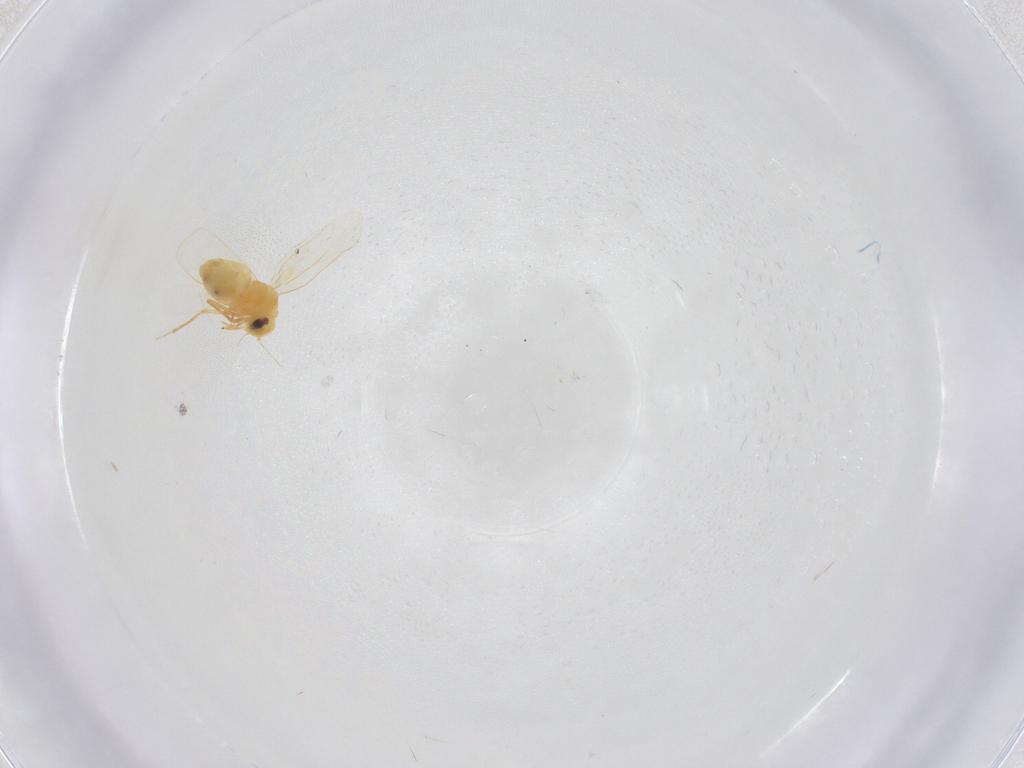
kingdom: Animalia
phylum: Arthropoda
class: Insecta
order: Hemiptera
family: Aleyrodidae
